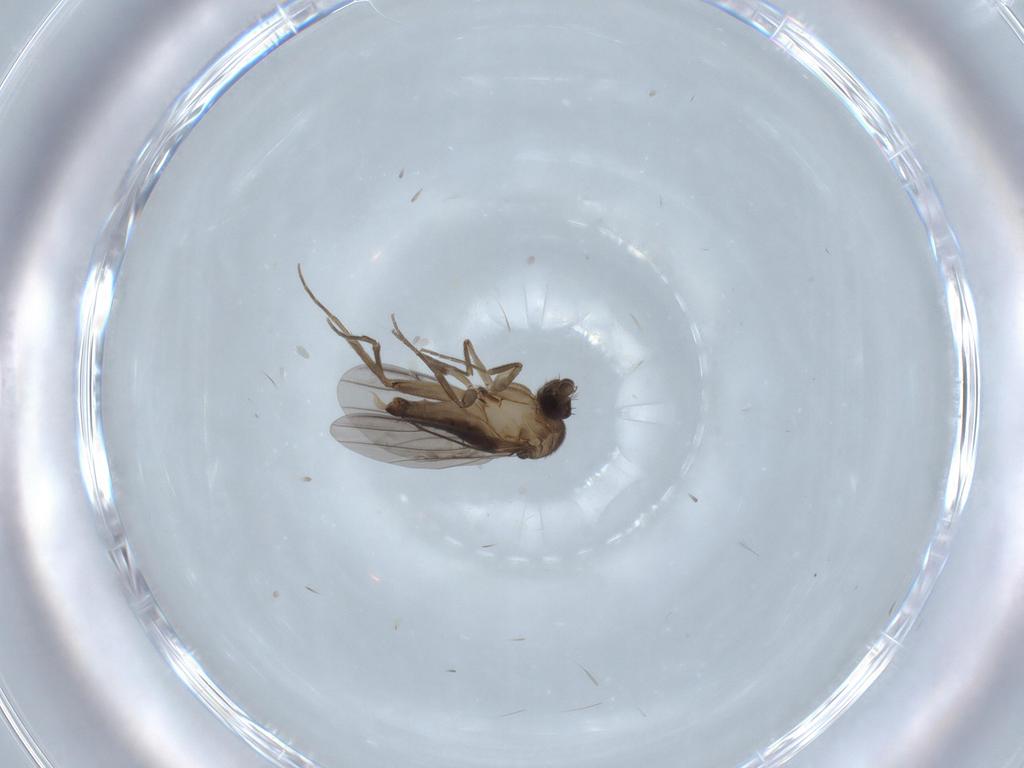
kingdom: Animalia
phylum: Arthropoda
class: Insecta
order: Diptera
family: Phoridae
